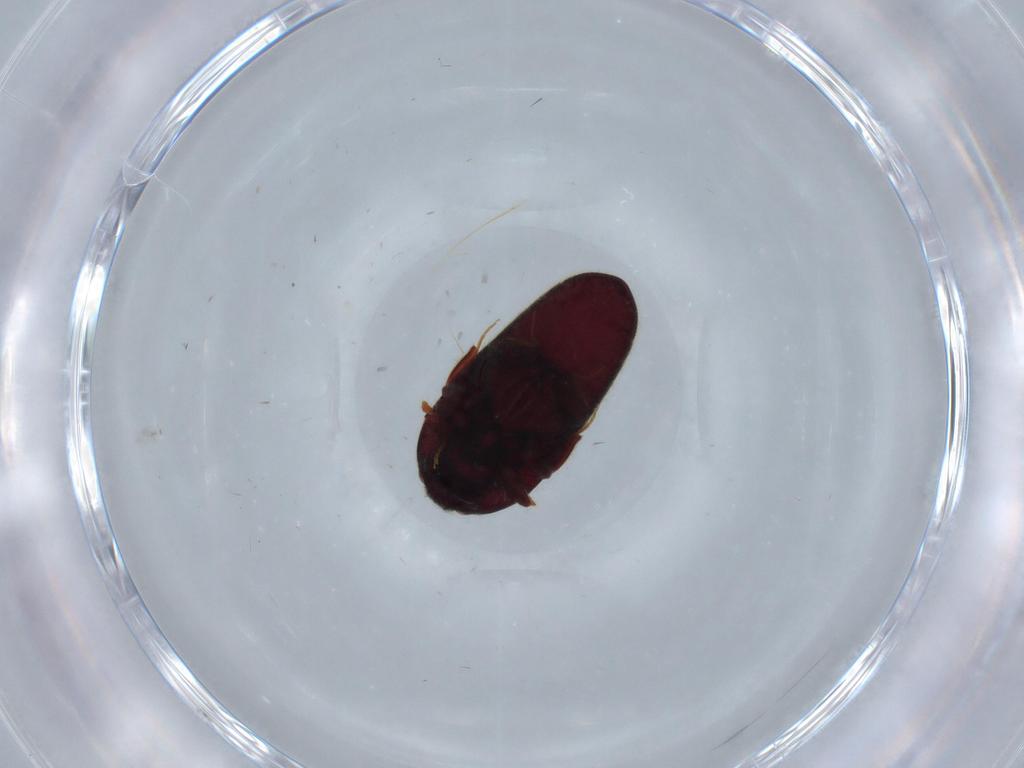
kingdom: Animalia
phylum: Arthropoda
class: Insecta
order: Coleoptera
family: Throscidae
